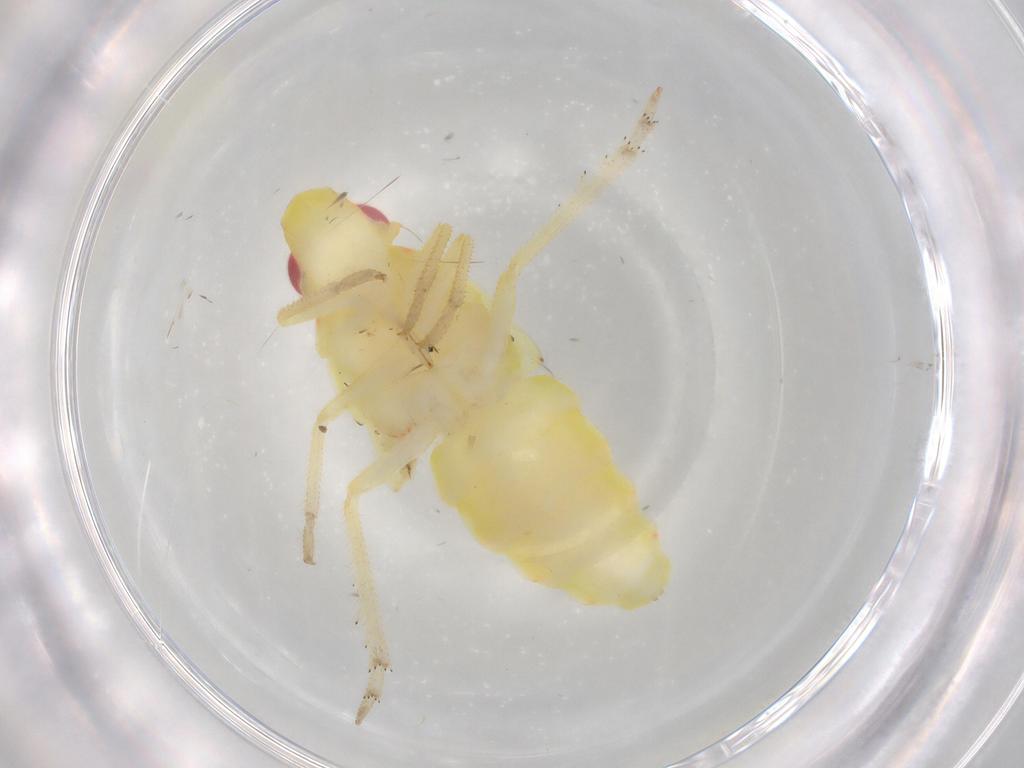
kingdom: Animalia
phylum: Arthropoda
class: Insecta
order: Hemiptera
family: Tropiduchidae
